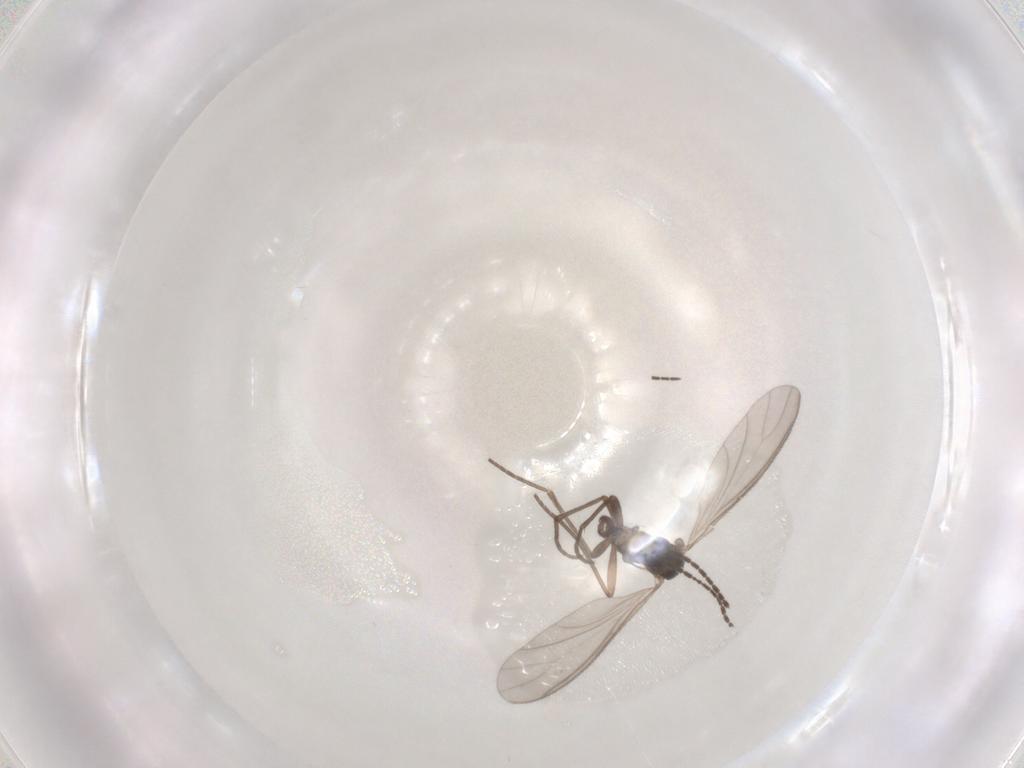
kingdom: Animalia
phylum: Arthropoda
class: Insecta
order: Diptera
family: Sciaridae
